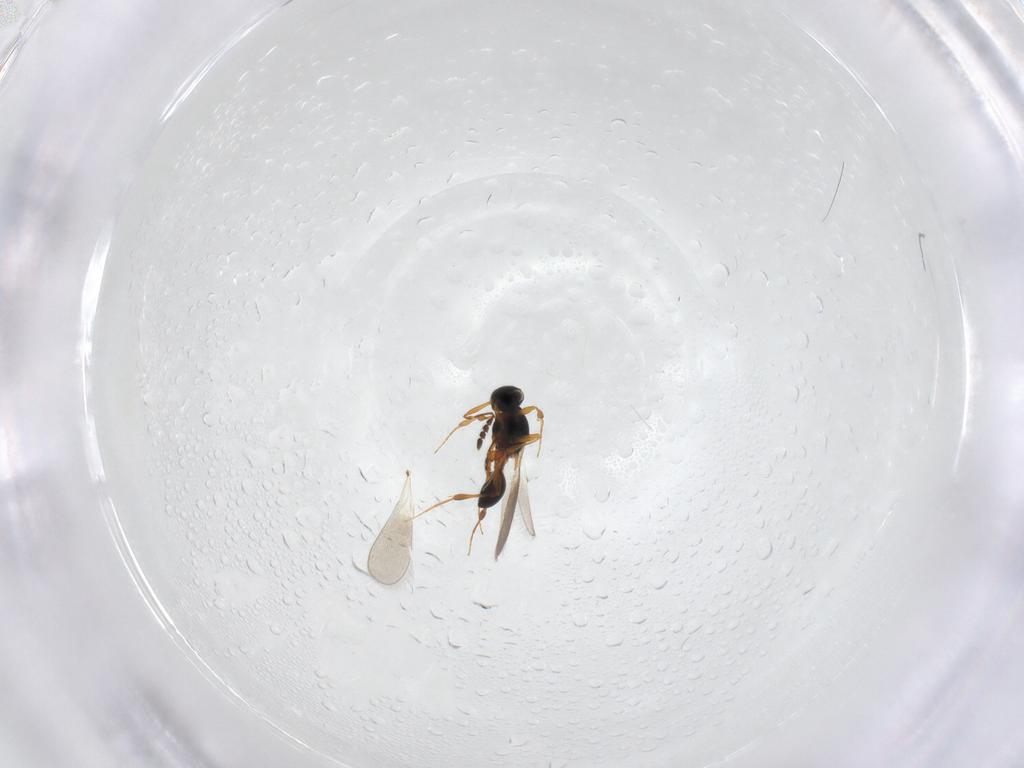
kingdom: Animalia
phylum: Arthropoda
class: Insecta
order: Hymenoptera
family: Platygastridae
